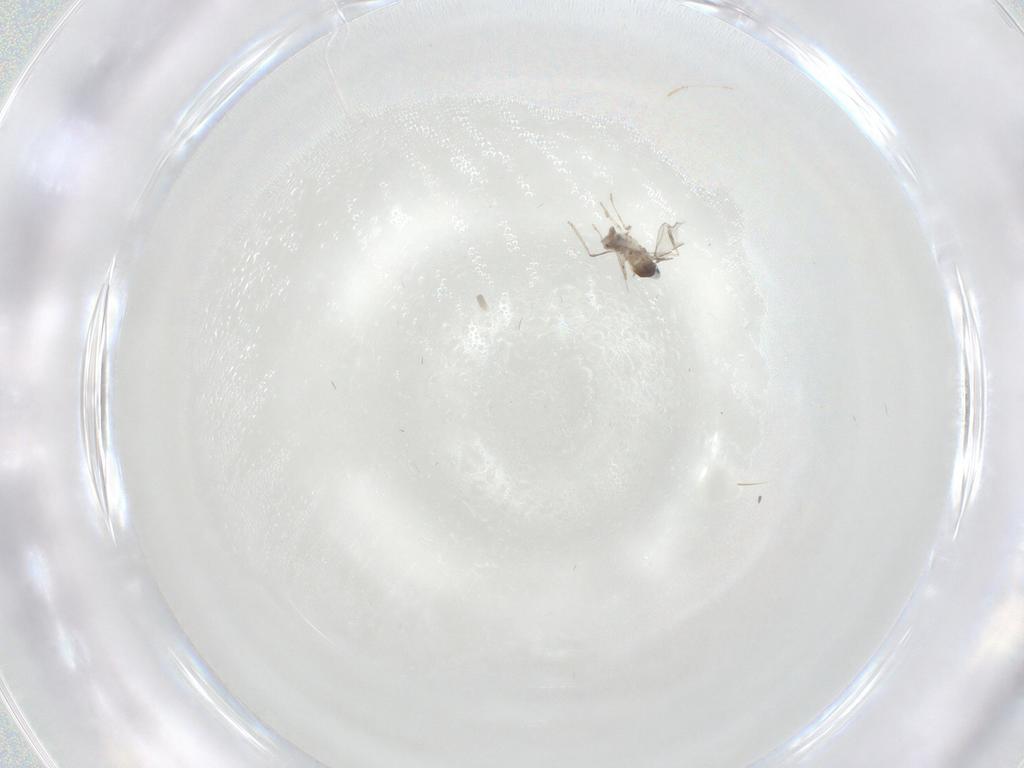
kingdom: Animalia
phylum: Arthropoda
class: Insecta
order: Diptera
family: Cecidomyiidae
